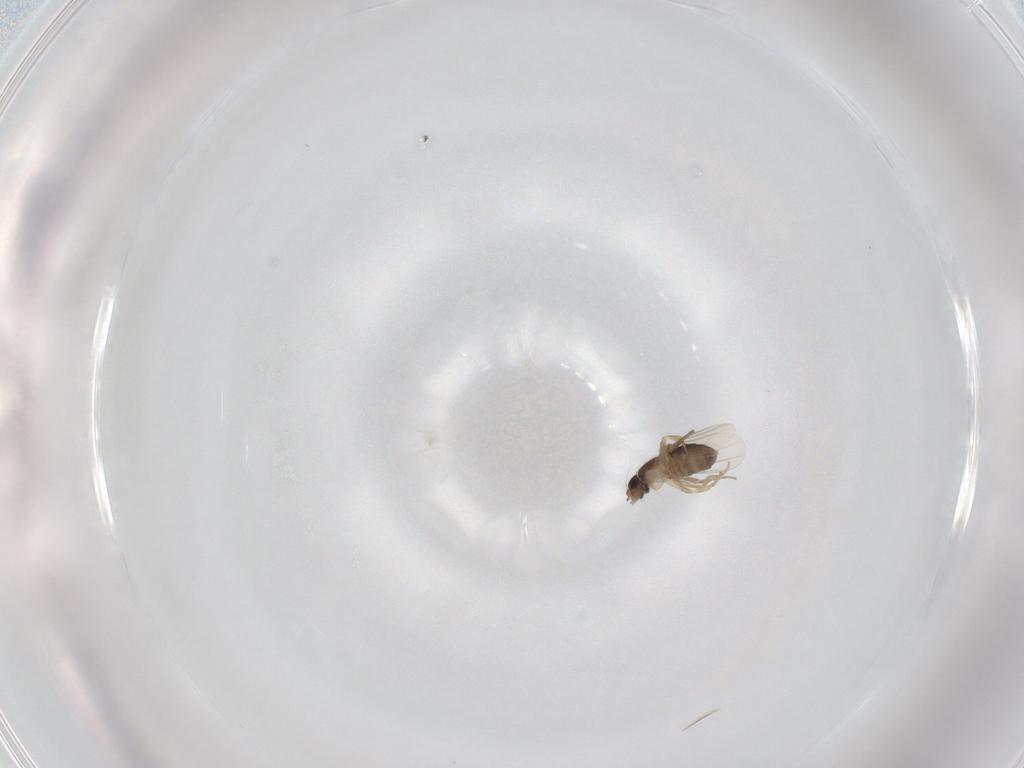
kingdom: Animalia
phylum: Arthropoda
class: Insecta
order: Diptera
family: Cecidomyiidae
